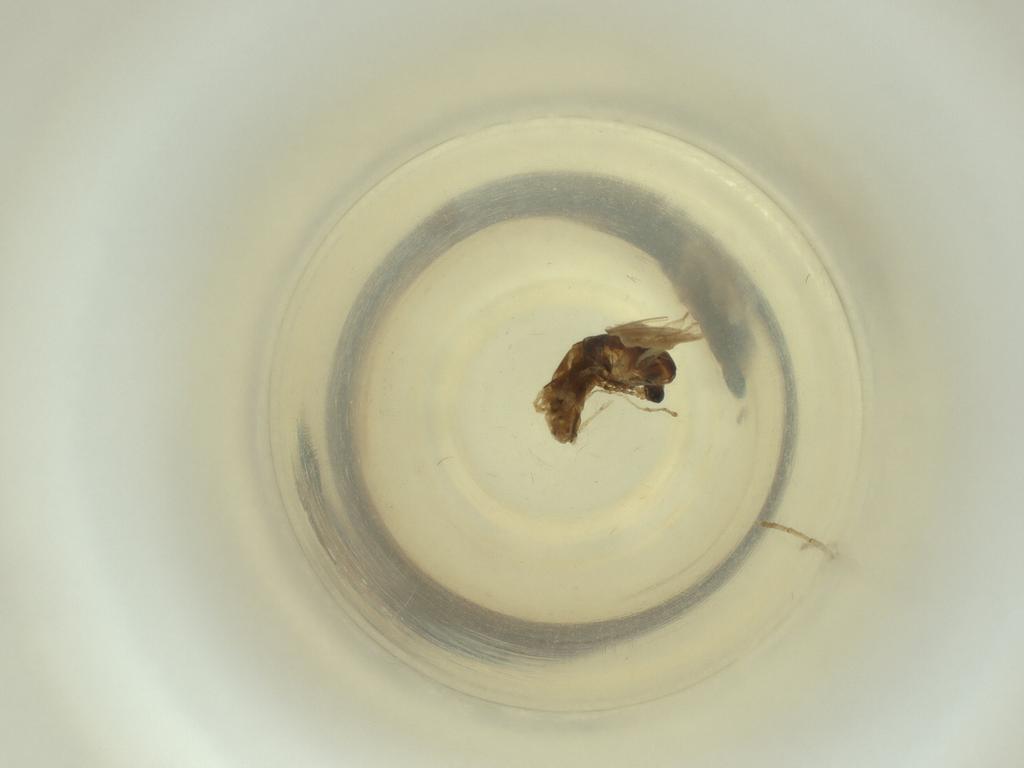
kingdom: Animalia
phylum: Arthropoda
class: Insecta
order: Diptera
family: Cecidomyiidae
